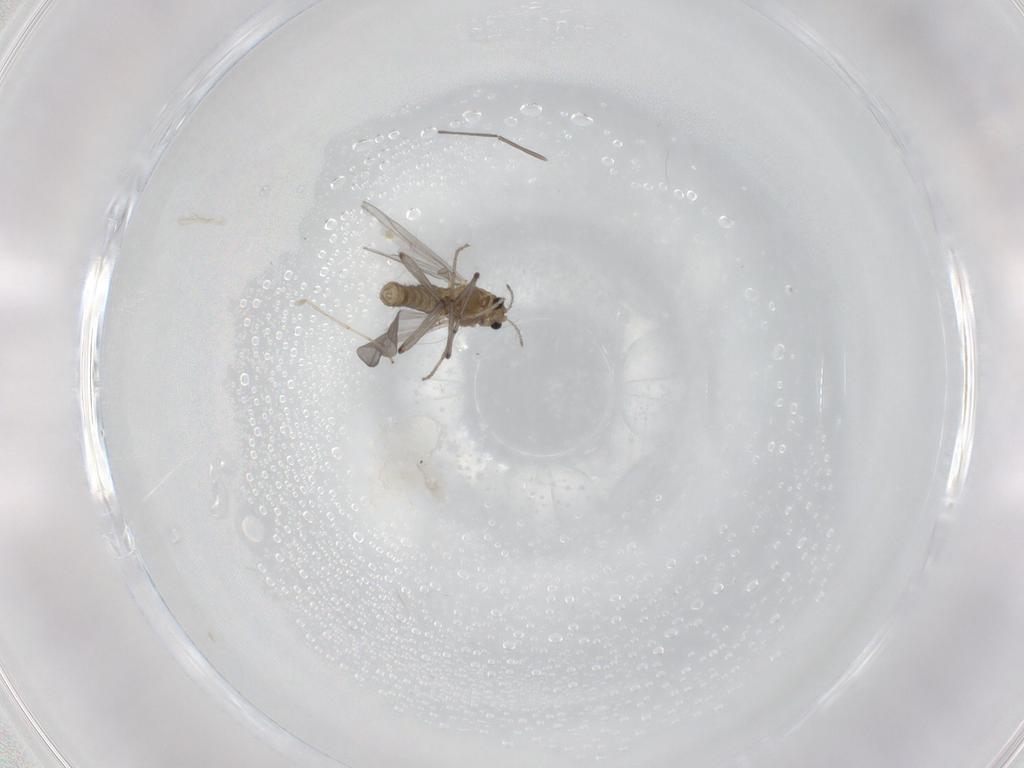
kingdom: Animalia
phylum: Arthropoda
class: Insecta
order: Diptera
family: Chironomidae
